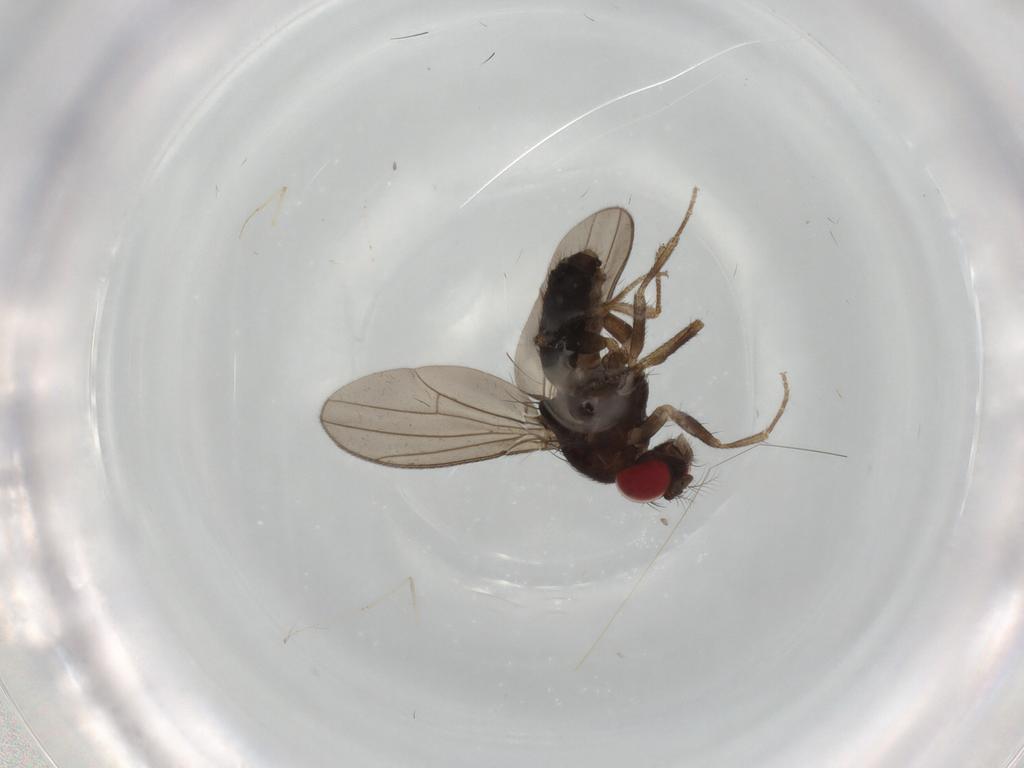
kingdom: Animalia
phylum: Arthropoda
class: Insecta
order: Diptera
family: Drosophilidae
